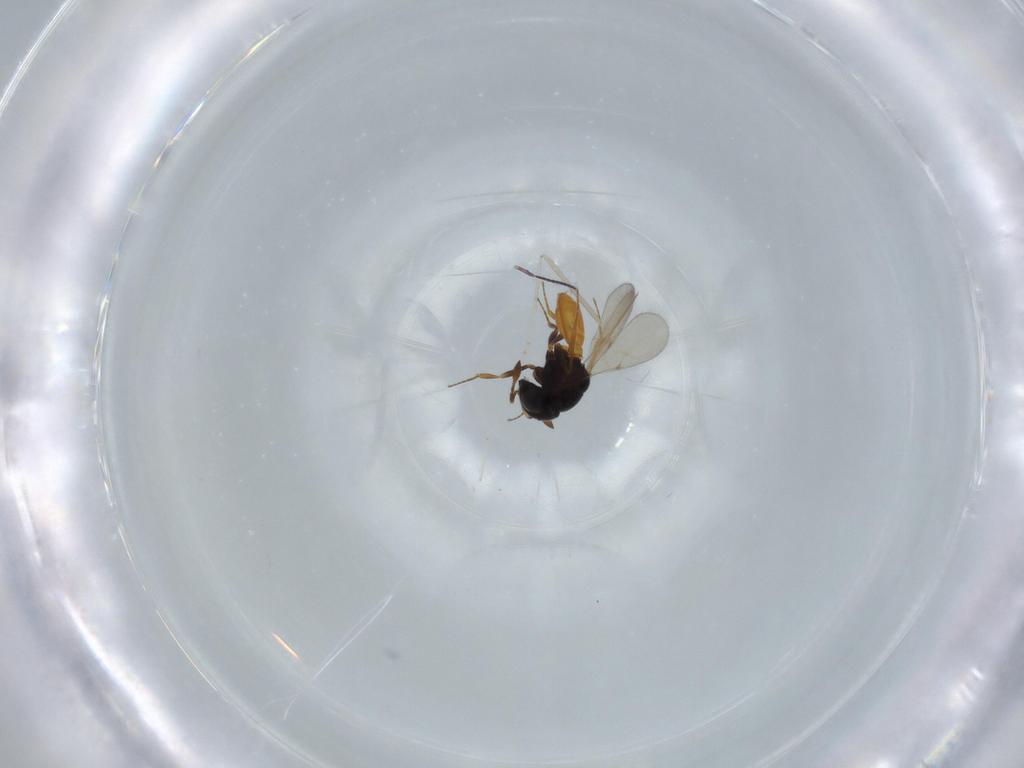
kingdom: Animalia
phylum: Arthropoda
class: Insecta
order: Hymenoptera
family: Scelionidae
